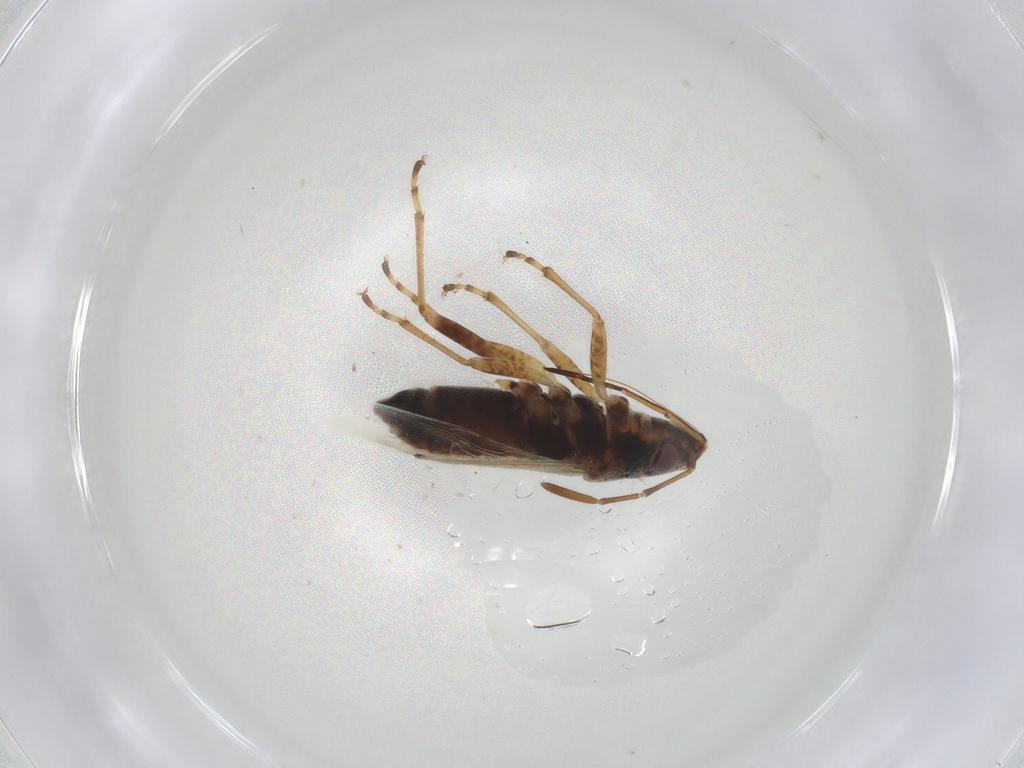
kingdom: Animalia
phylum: Arthropoda
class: Insecta
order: Hemiptera
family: Lygaeidae
